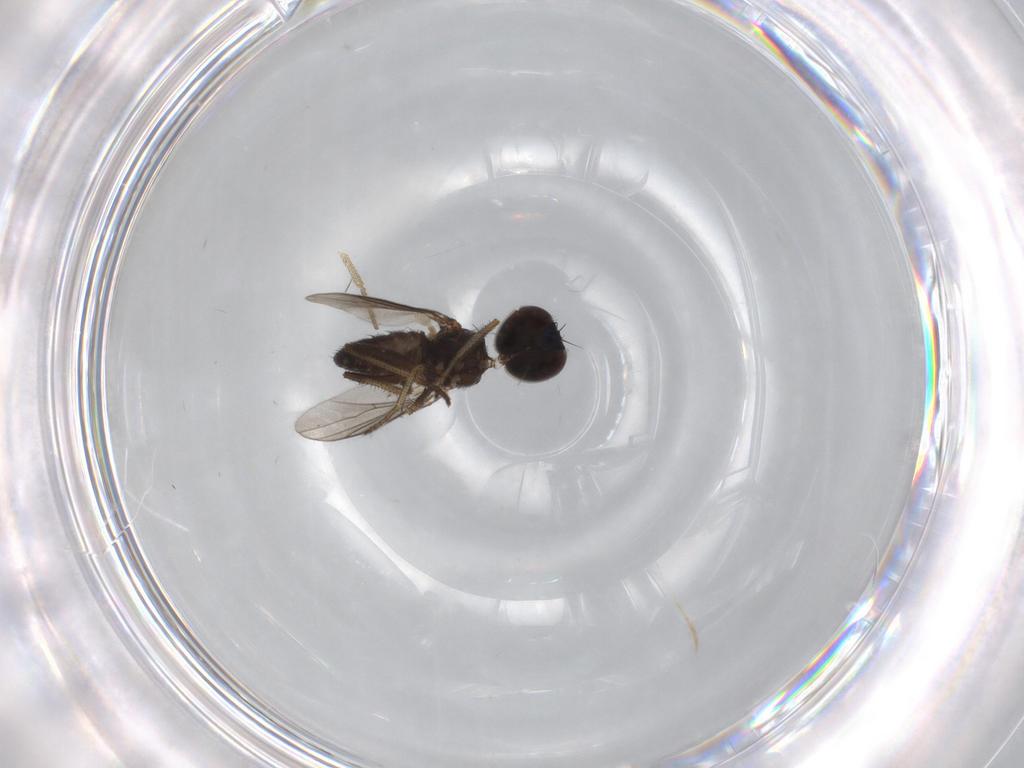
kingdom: Animalia
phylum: Arthropoda
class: Insecta
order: Diptera
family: Chironomidae
